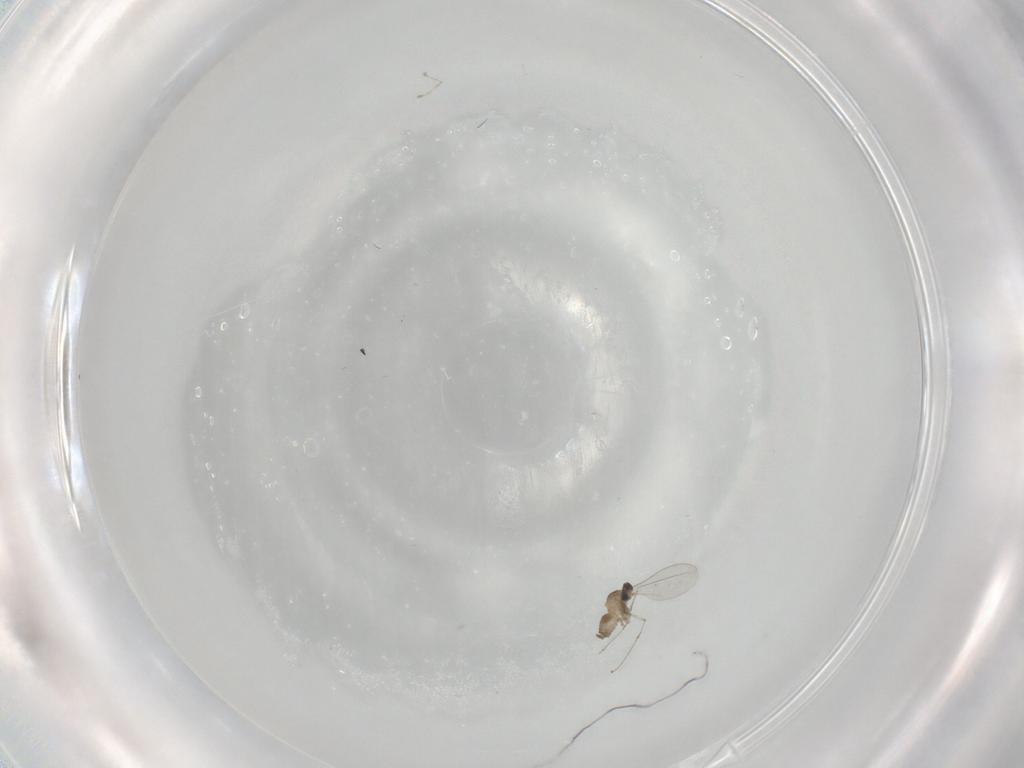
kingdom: Animalia
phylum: Arthropoda
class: Insecta
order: Diptera
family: Cecidomyiidae
